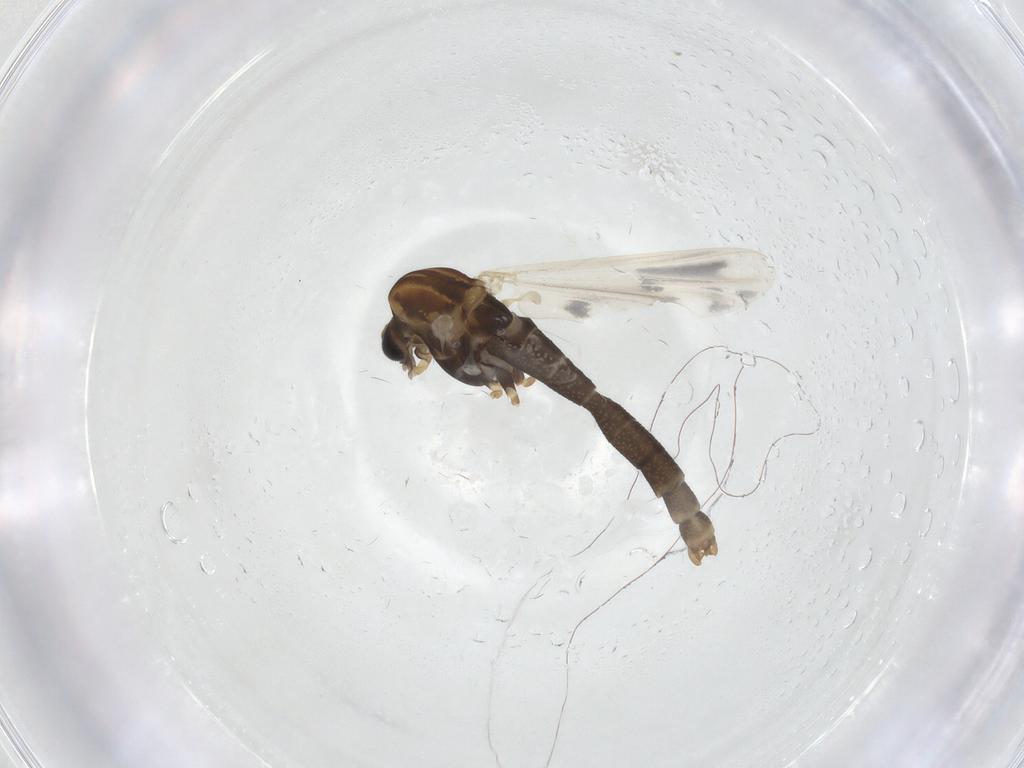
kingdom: Animalia
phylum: Arthropoda
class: Insecta
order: Diptera
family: Chironomidae
